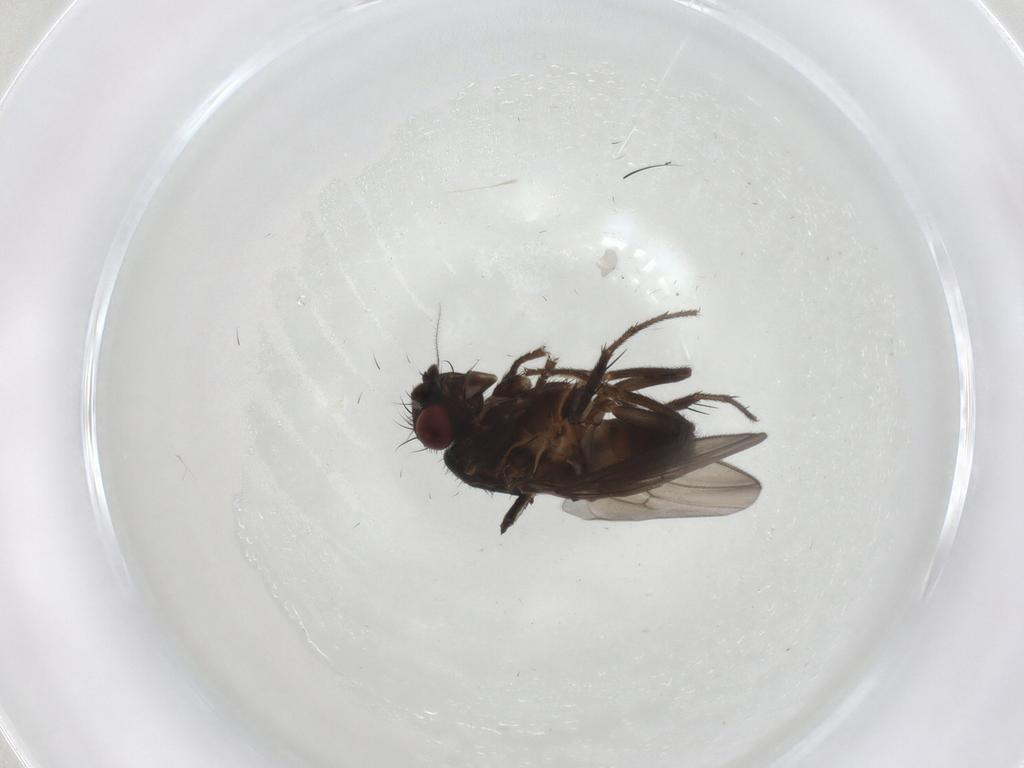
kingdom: Animalia
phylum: Arthropoda
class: Insecta
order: Diptera
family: Sphaeroceridae
